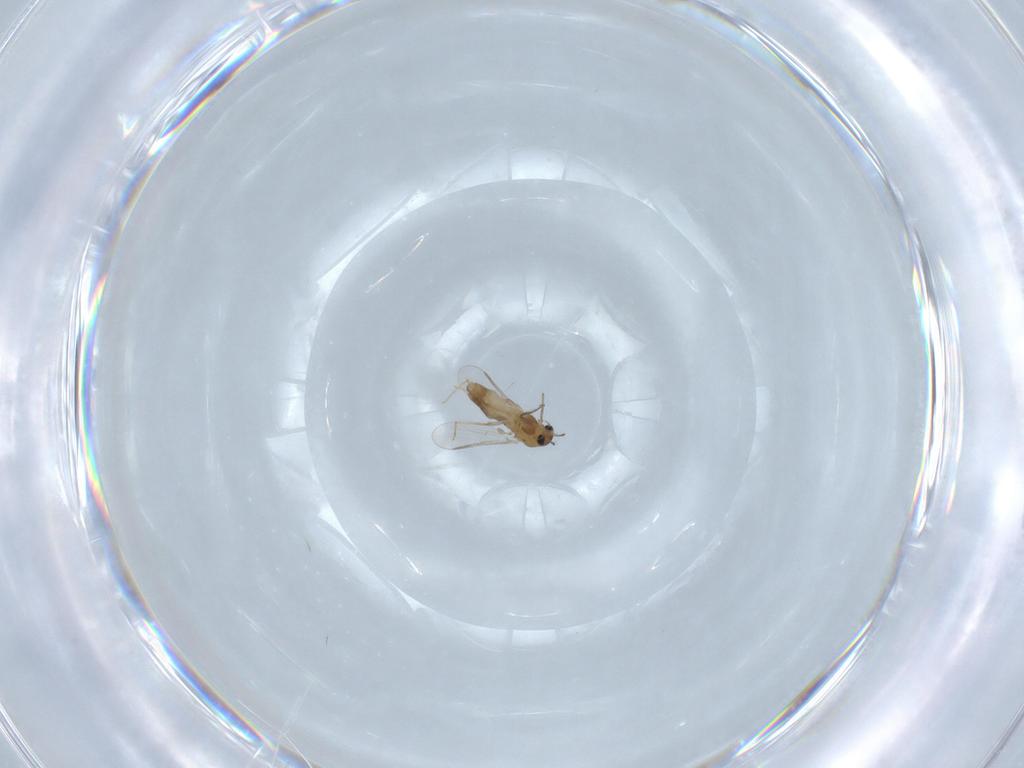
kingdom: Animalia
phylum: Arthropoda
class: Insecta
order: Diptera
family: Chironomidae
